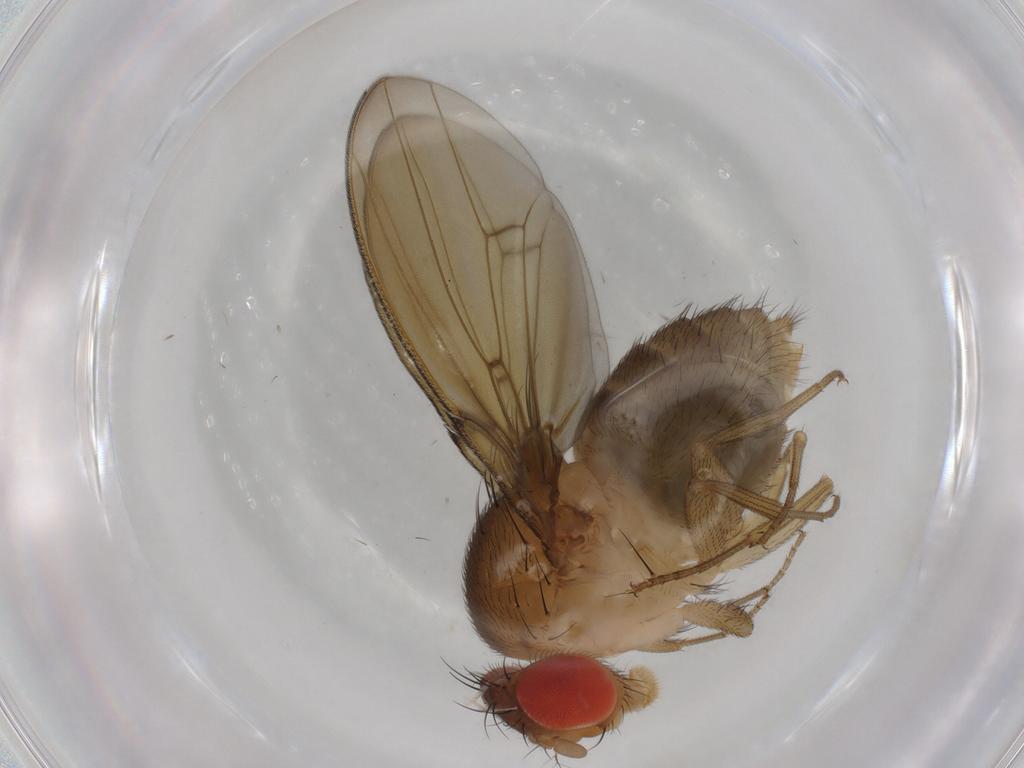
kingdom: Animalia
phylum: Arthropoda
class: Insecta
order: Diptera
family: Drosophilidae
